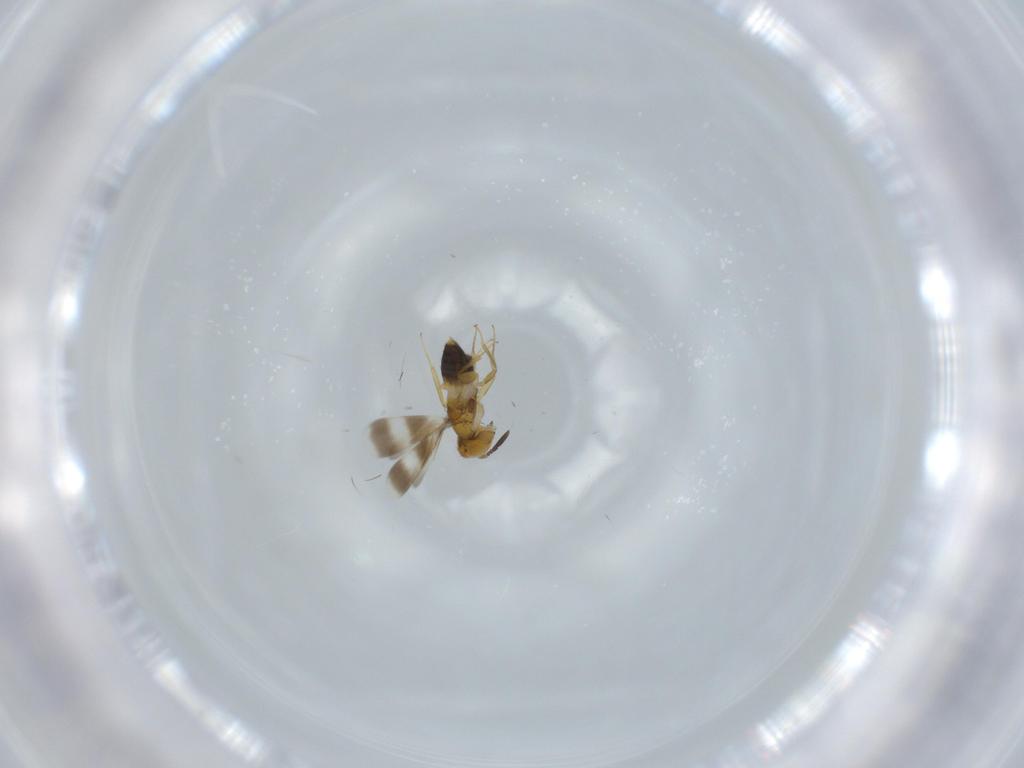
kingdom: Animalia
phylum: Arthropoda
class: Insecta
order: Hymenoptera
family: Aphelinidae
